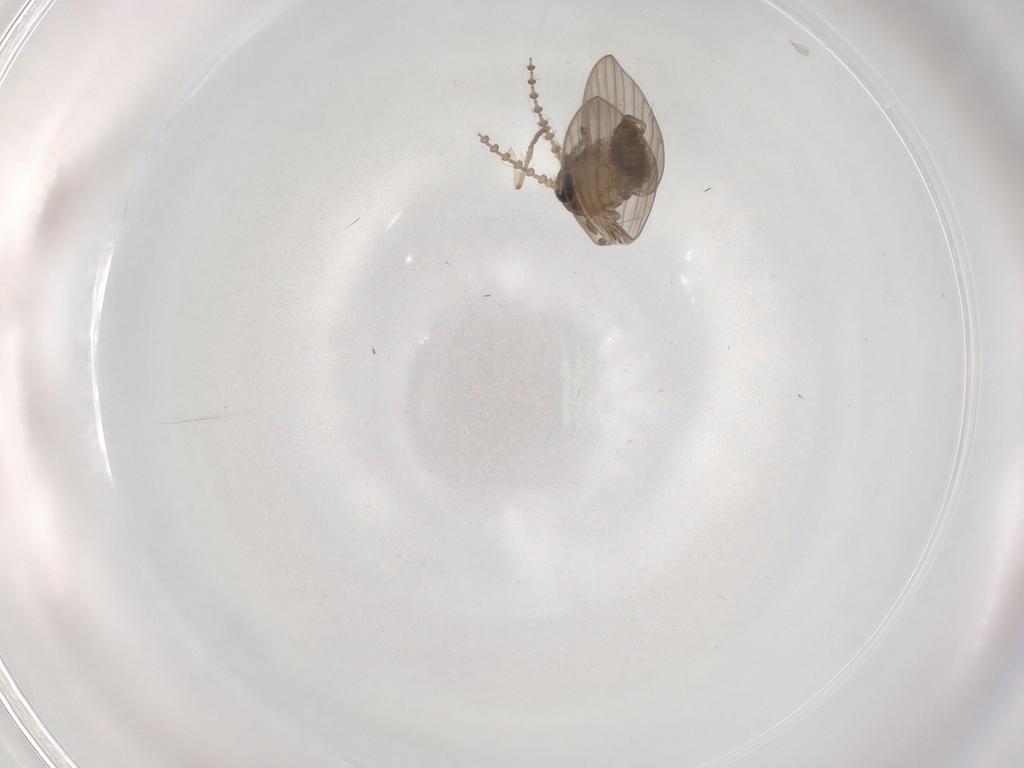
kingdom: Animalia
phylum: Arthropoda
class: Insecta
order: Diptera
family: Psychodidae
